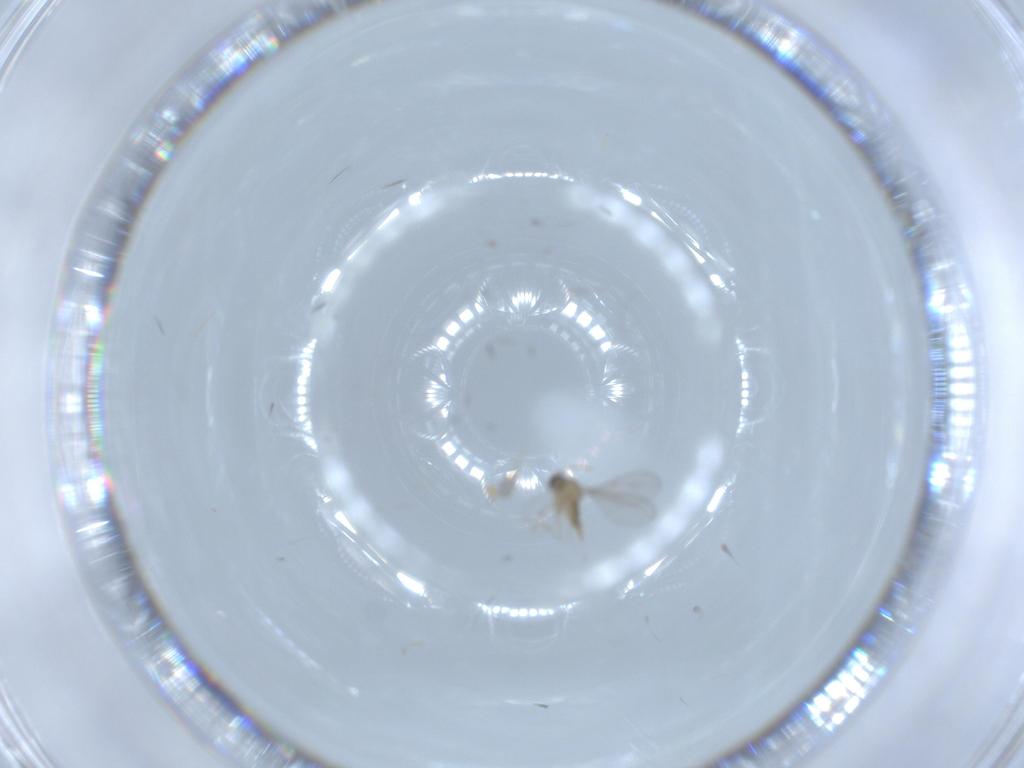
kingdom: Animalia
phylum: Arthropoda
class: Insecta
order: Diptera
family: Cecidomyiidae
